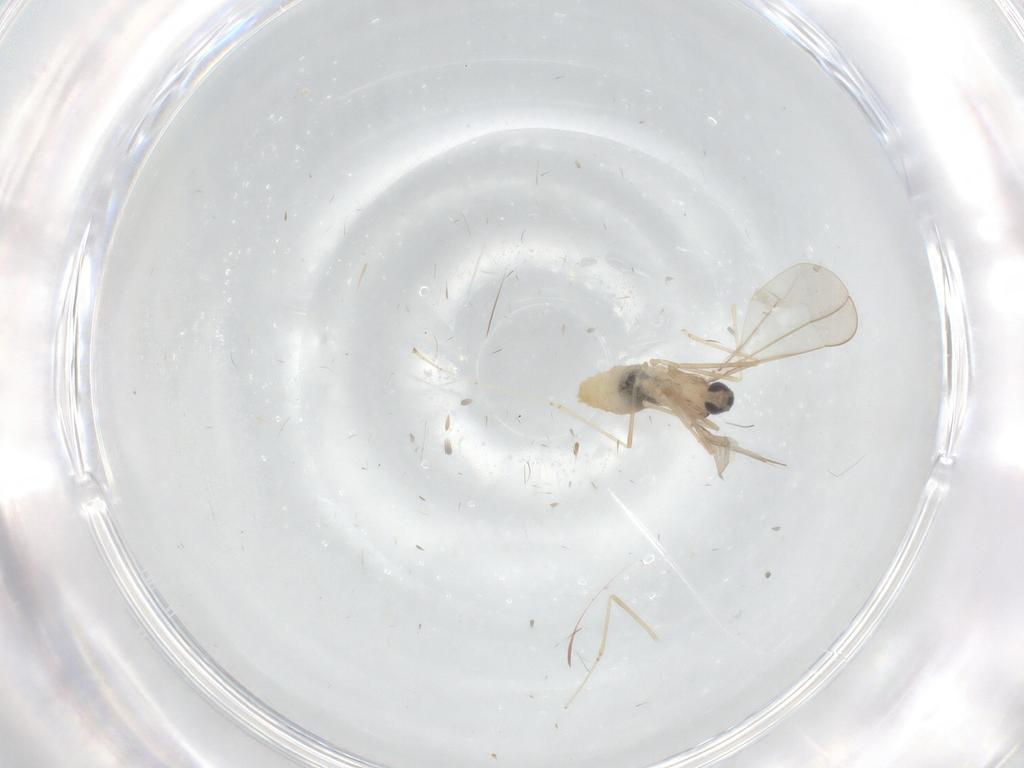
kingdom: Animalia
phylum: Arthropoda
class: Insecta
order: Diptera
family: Cecidomyiidae
